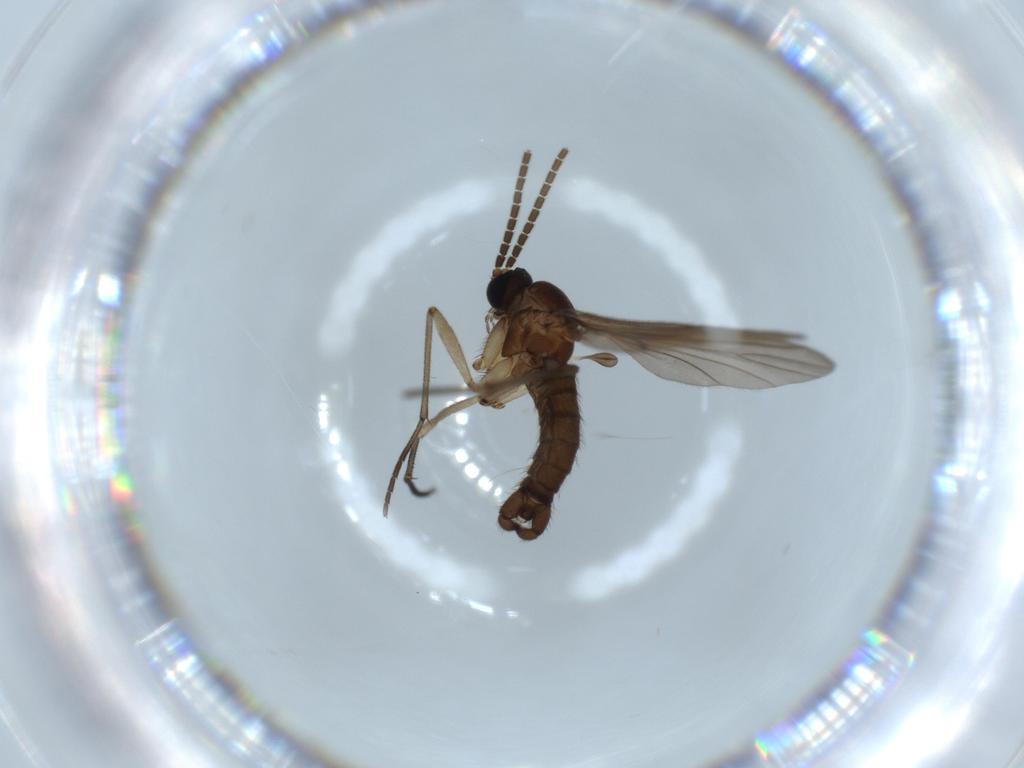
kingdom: Animalia
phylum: Arthropoda
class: Insecta
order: Diptera
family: Sciaridae
